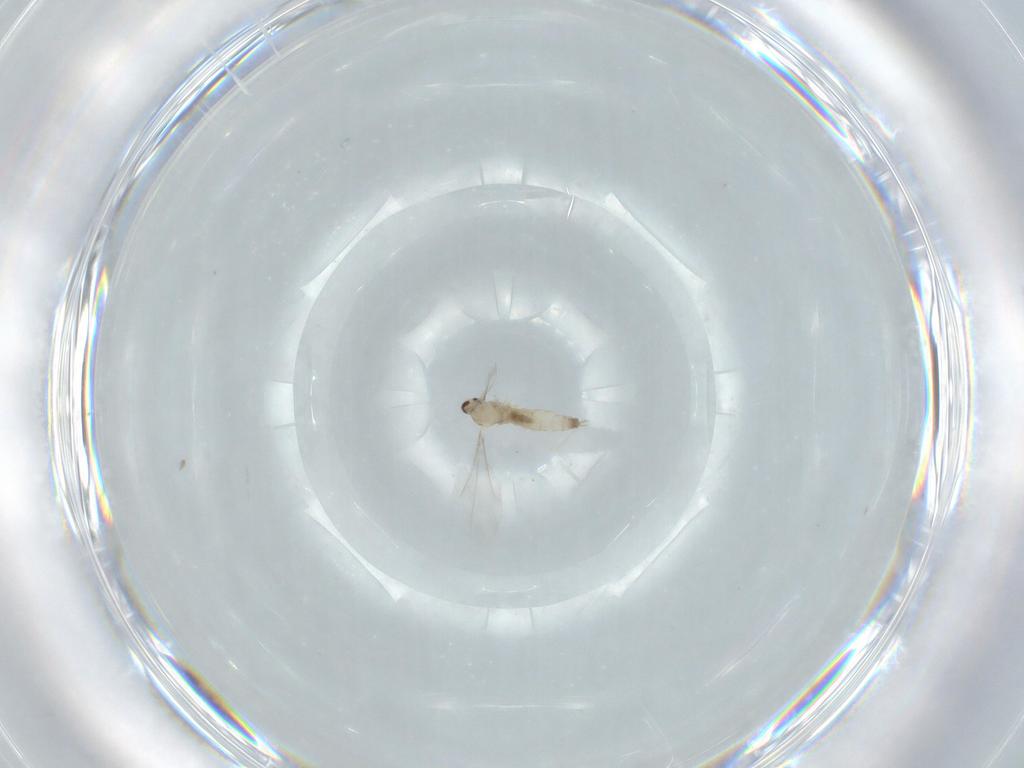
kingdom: Animalia
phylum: Arthropoda
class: Insecta
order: Diptera
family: Cecidomyiidae
